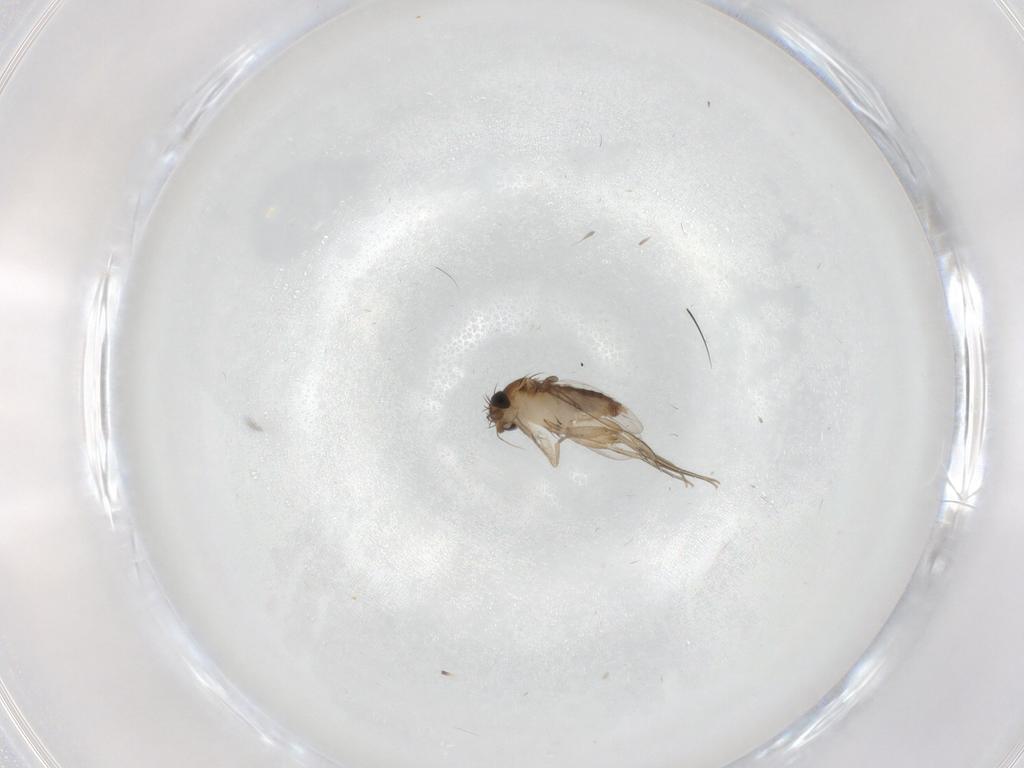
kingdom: Animalia
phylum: Arthropoda
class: Insecta
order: Diptera
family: Phoridae
